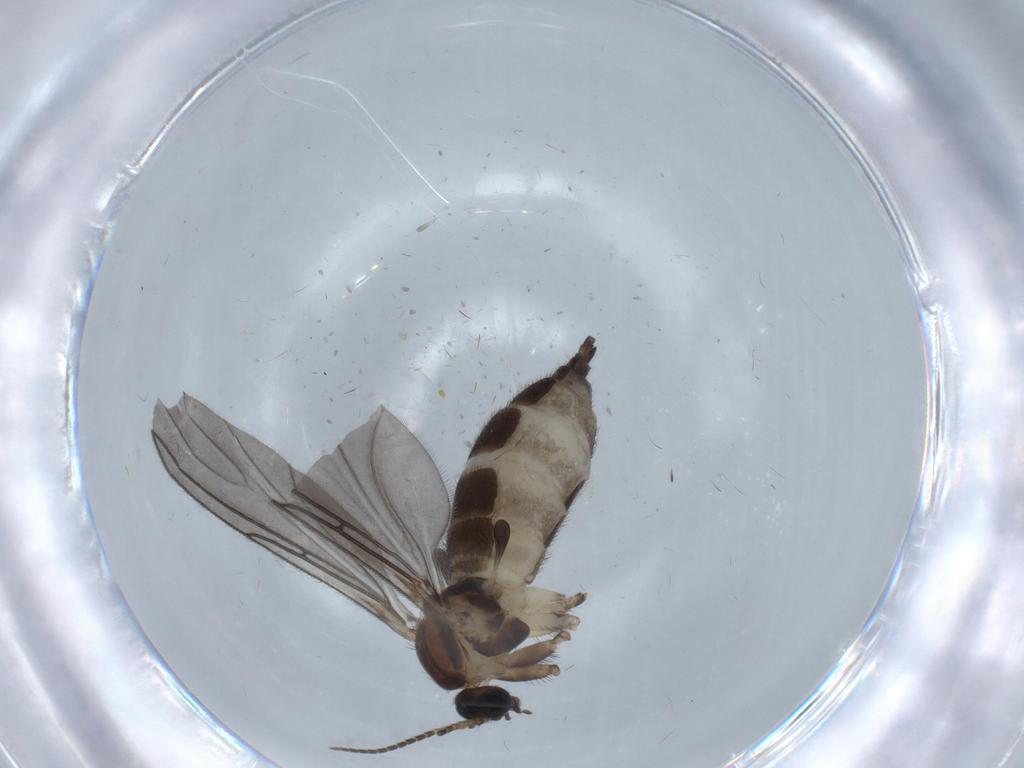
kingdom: Animalia
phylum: Arthropoda
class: Insecta
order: Diptera
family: Sciaridae
